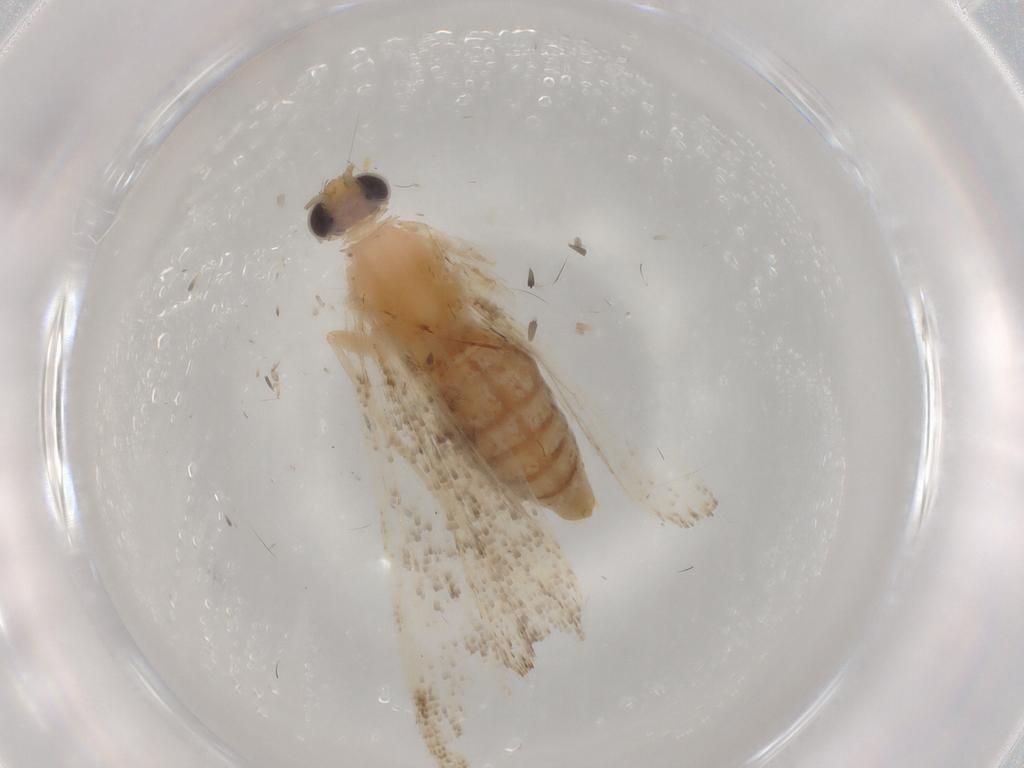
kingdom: Animalia
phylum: Arthropoda
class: Insecta
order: Lepidoptera
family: Crambidae
